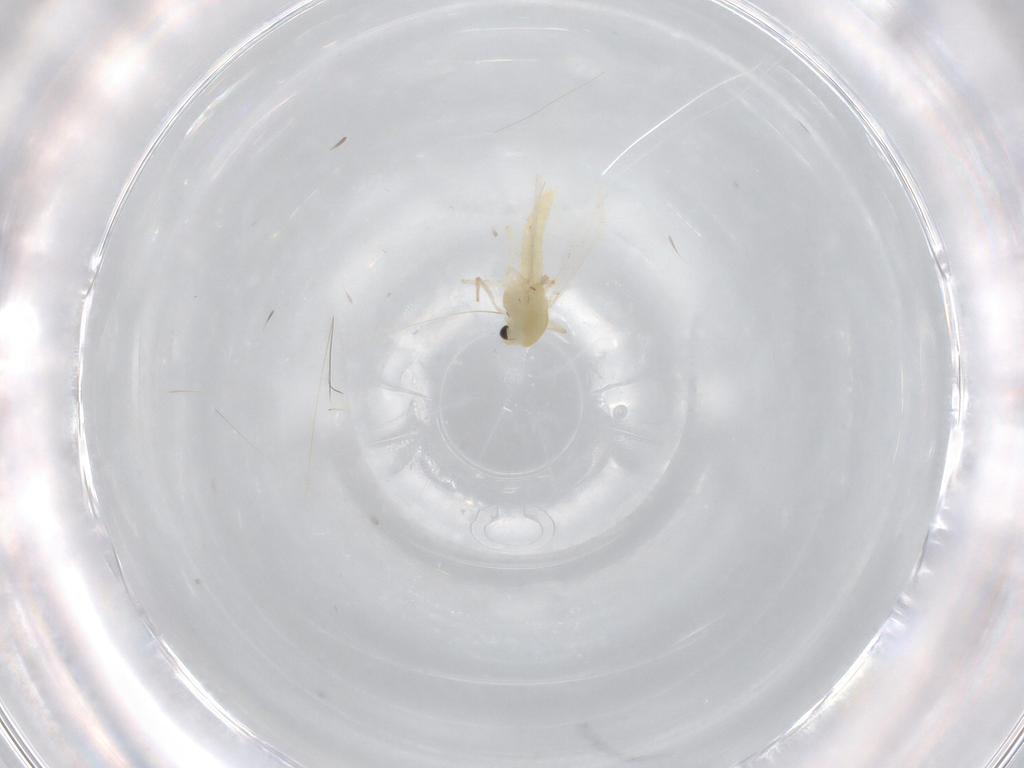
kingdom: Animalia
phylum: Arthropoda
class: Insecta
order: Diptera
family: Chironomidae
